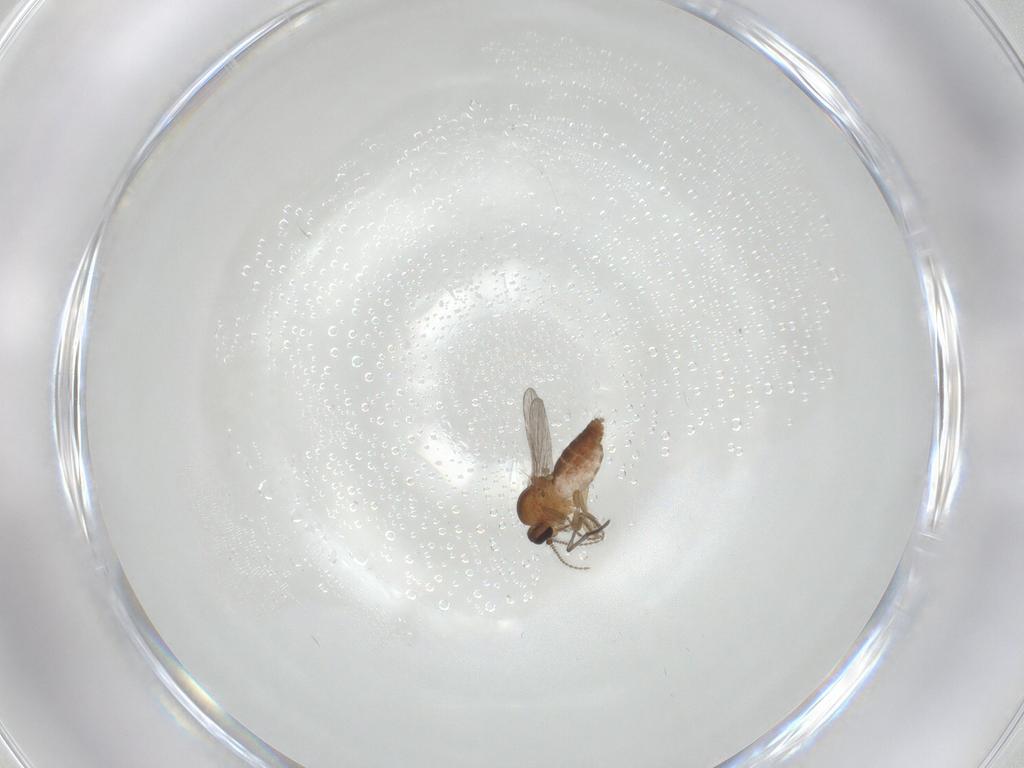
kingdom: Animalia
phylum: Arthropoda
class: Insecta
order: Diptera
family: Ceratopogonidae
